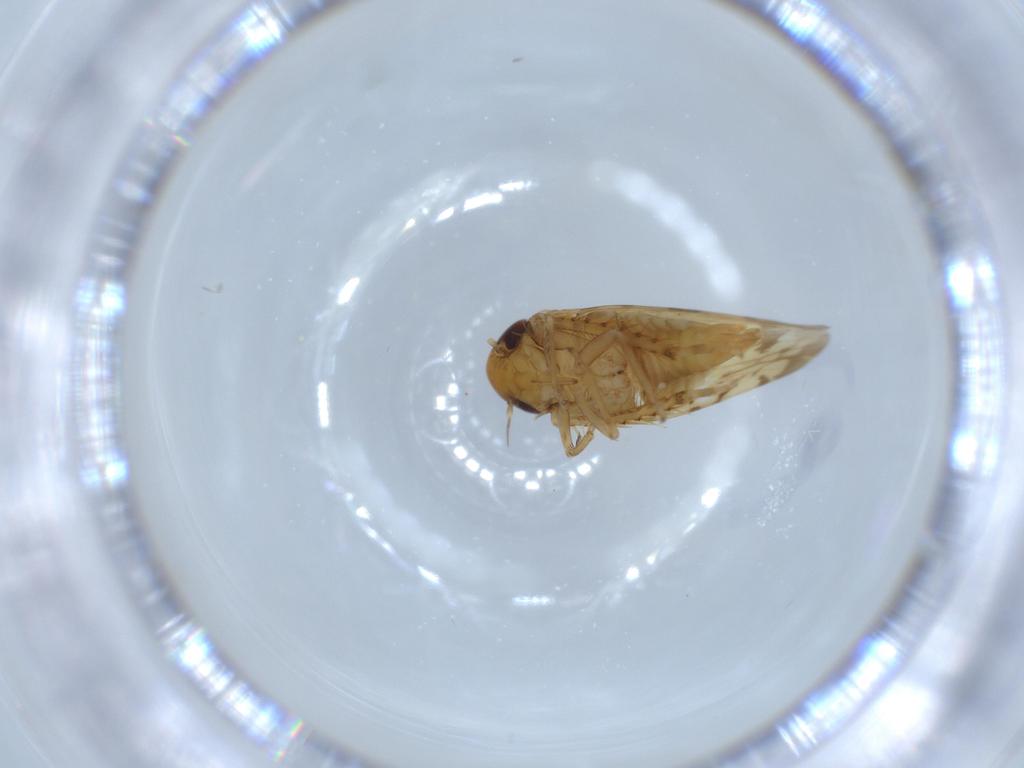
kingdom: Animalia
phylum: Arthropoda
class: Insecta
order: Hemiptera
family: Cicadellidae
